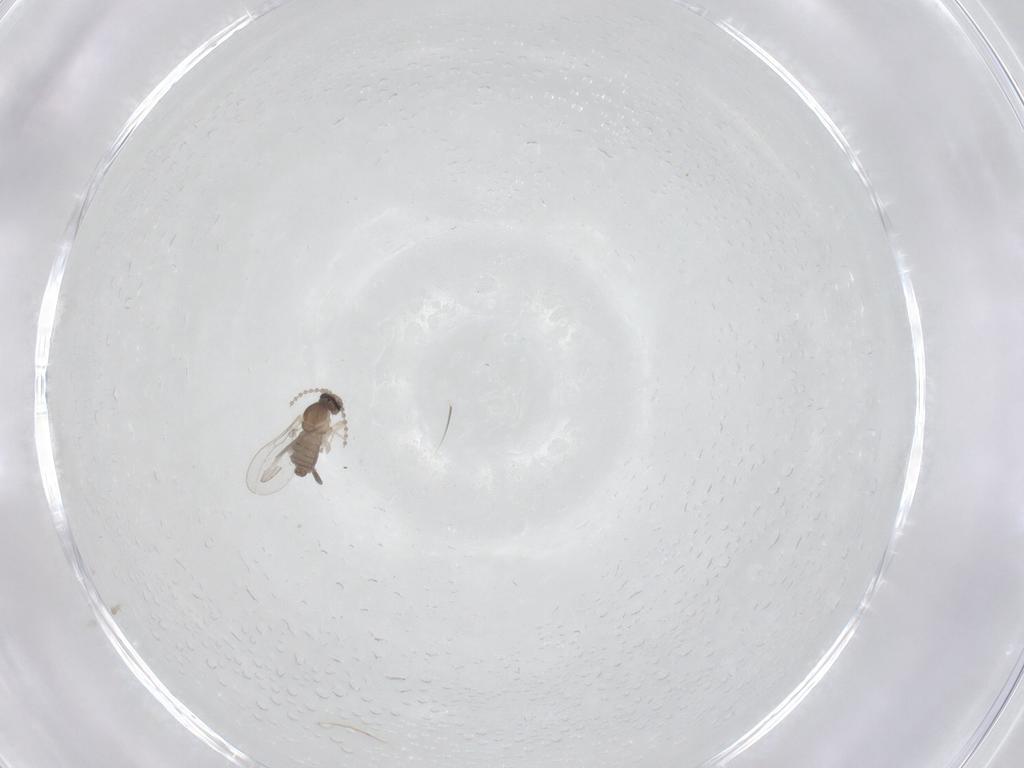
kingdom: Animalia
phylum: Arthropoda
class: Insecta
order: Diptera
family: Cecidomyiidae
